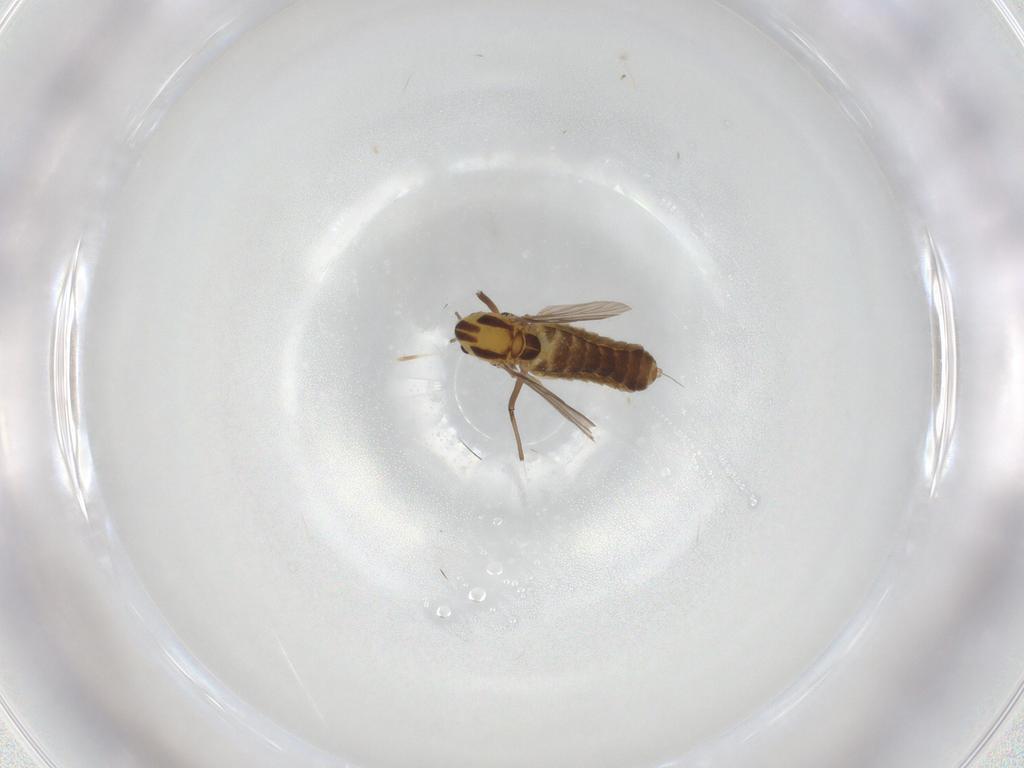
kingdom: Animalia
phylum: Arthropoda
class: Insecta
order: Diptera
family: Chironomidae
